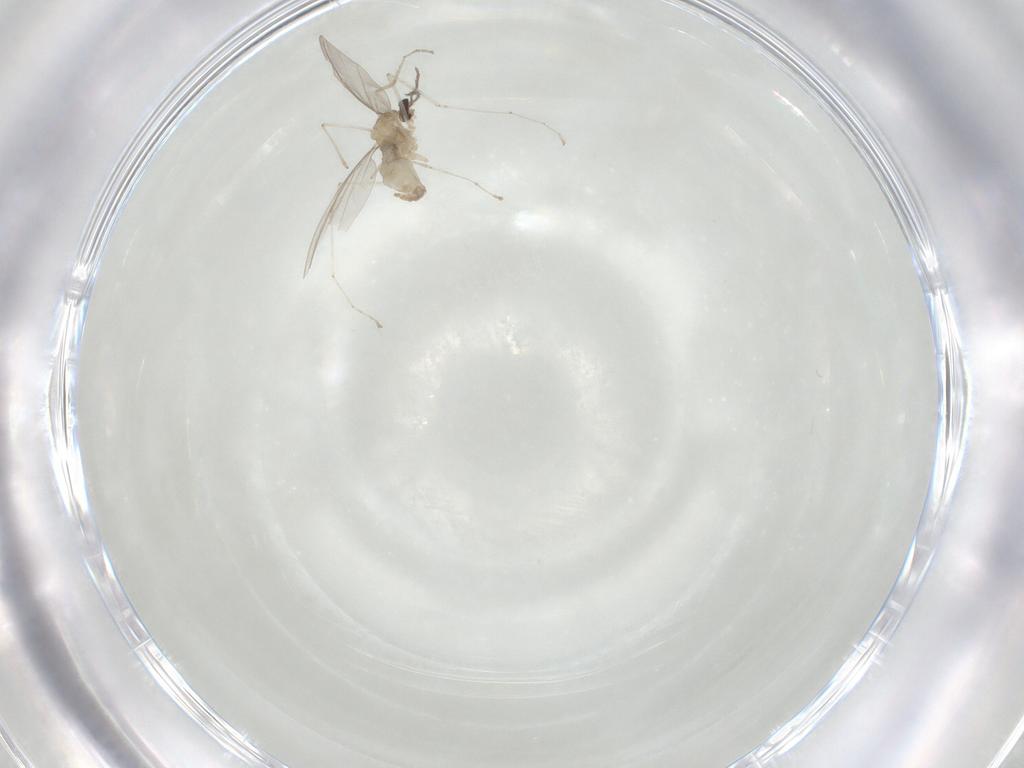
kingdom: Animalia
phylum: Arthropoda
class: Insecta
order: Diptera
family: Cecidomyiidae
